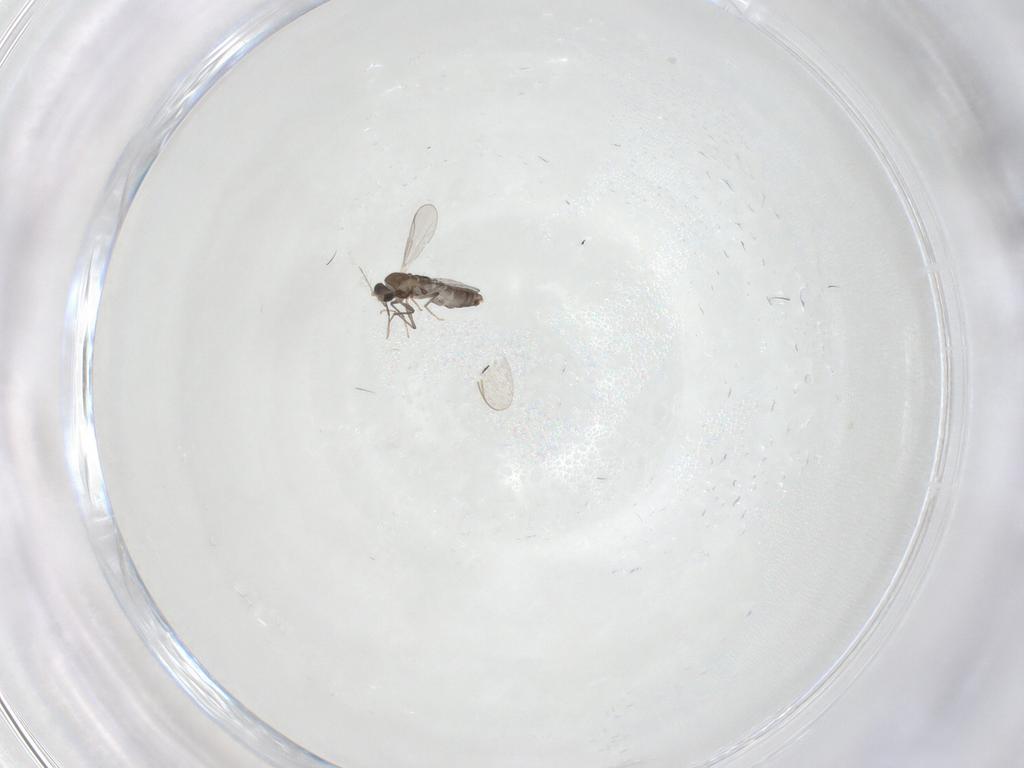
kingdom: Animalia
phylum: Arthropoda
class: Insecta
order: Diptera
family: Chironomidae
